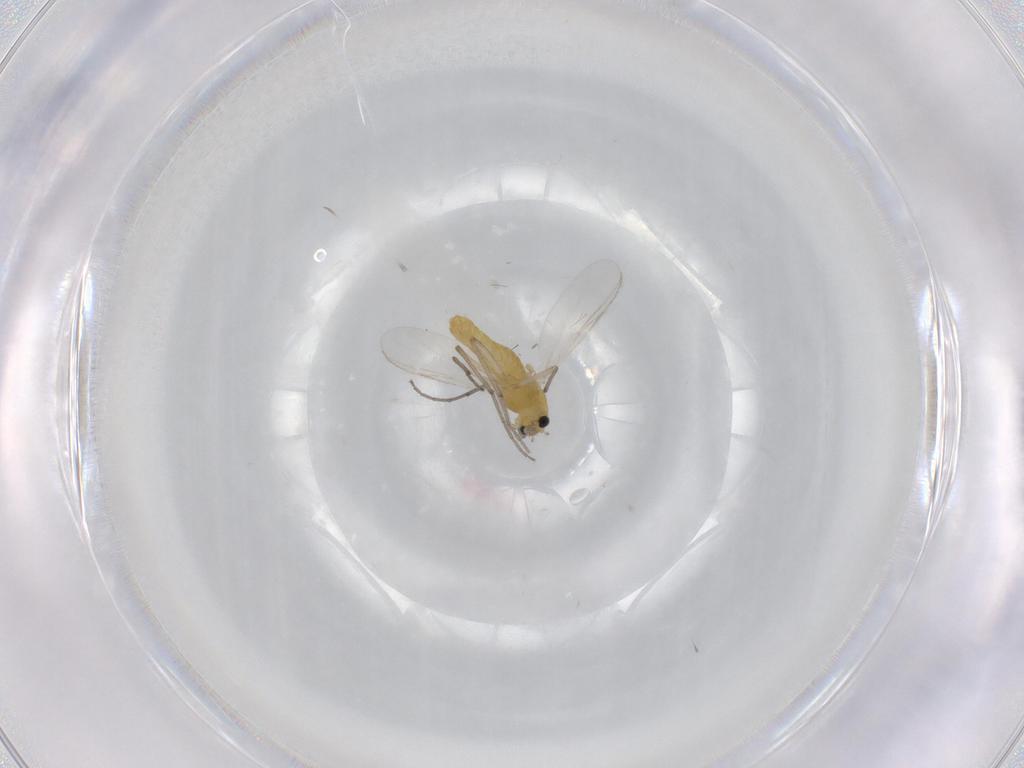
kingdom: Animalia
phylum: Arthropoda
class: Insecta
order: Diptera
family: Chironomidae
